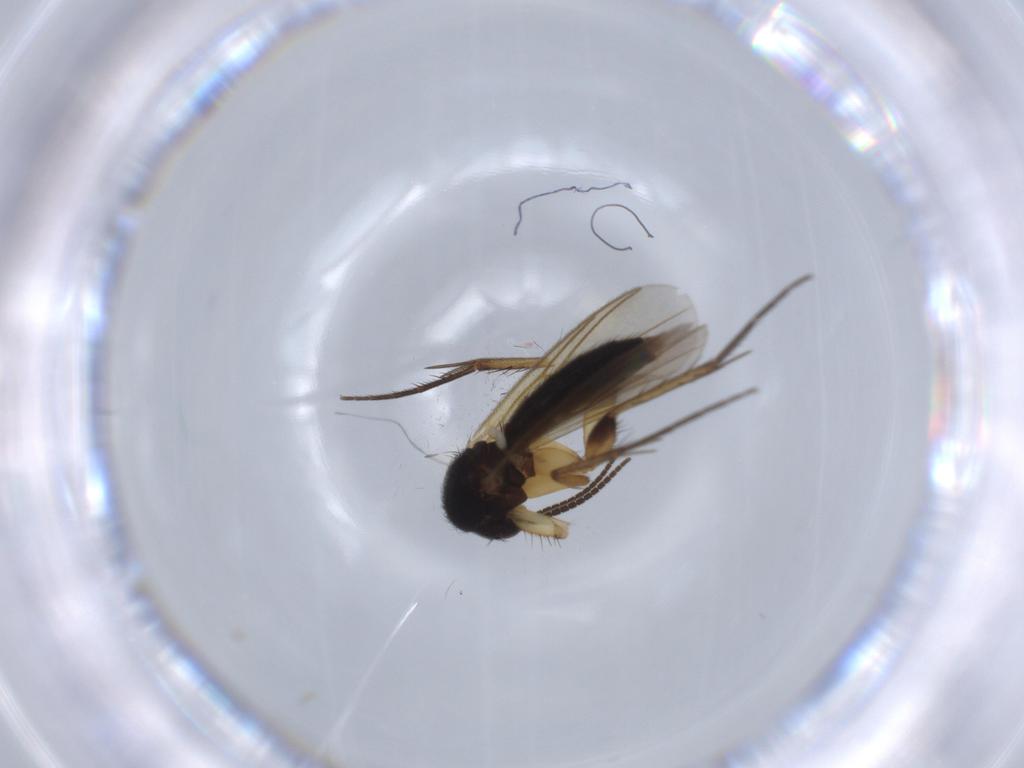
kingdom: Animalia
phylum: Arthropoda
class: Insecta
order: Diptera
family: Mycetophilidae
